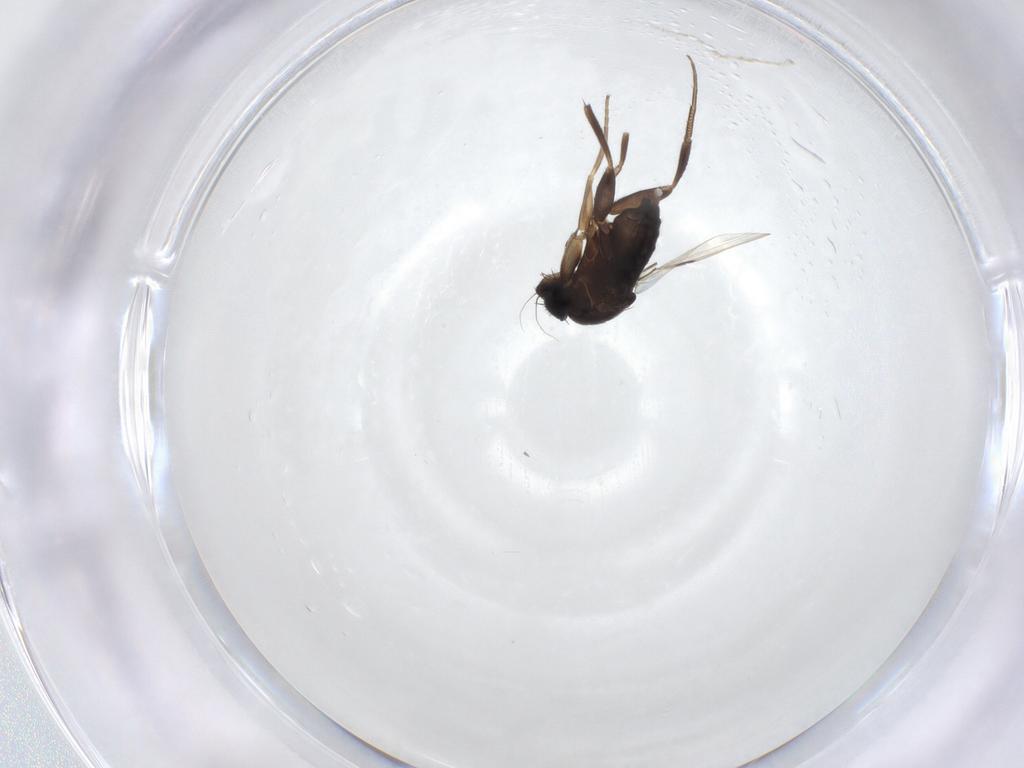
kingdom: Animalia
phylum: Arthropoda
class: Insecta
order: Diptera
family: Phoridae
